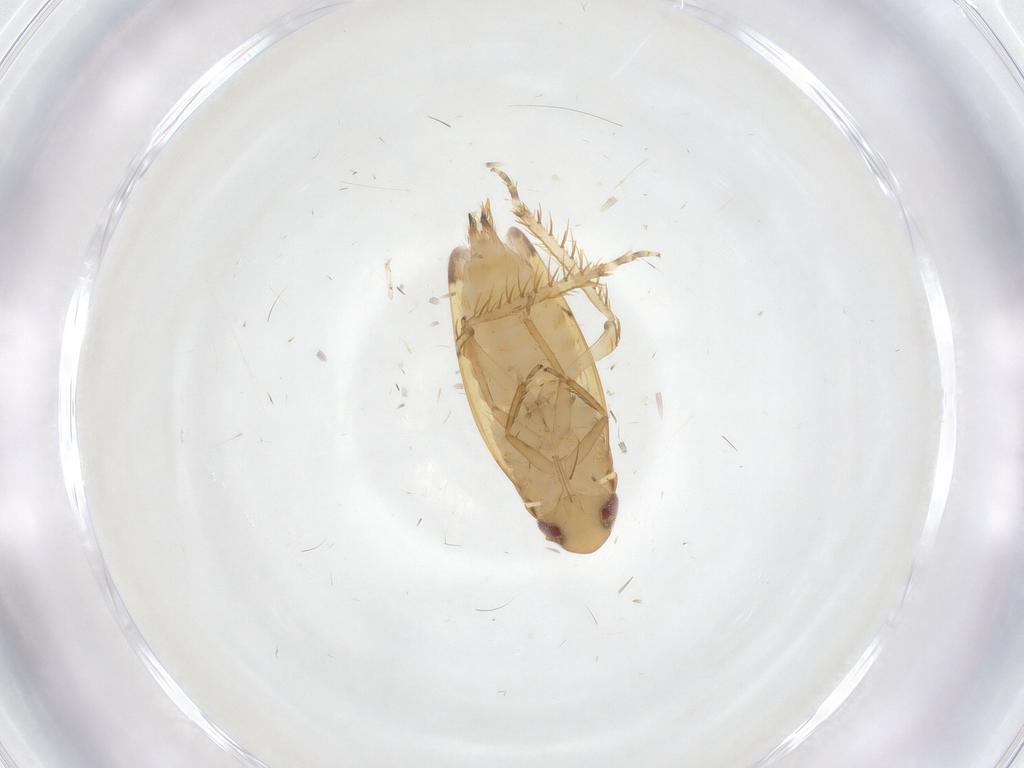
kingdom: Animalia
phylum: Arthropoda
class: Insecta
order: Hemiptera
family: Cicadellidae
